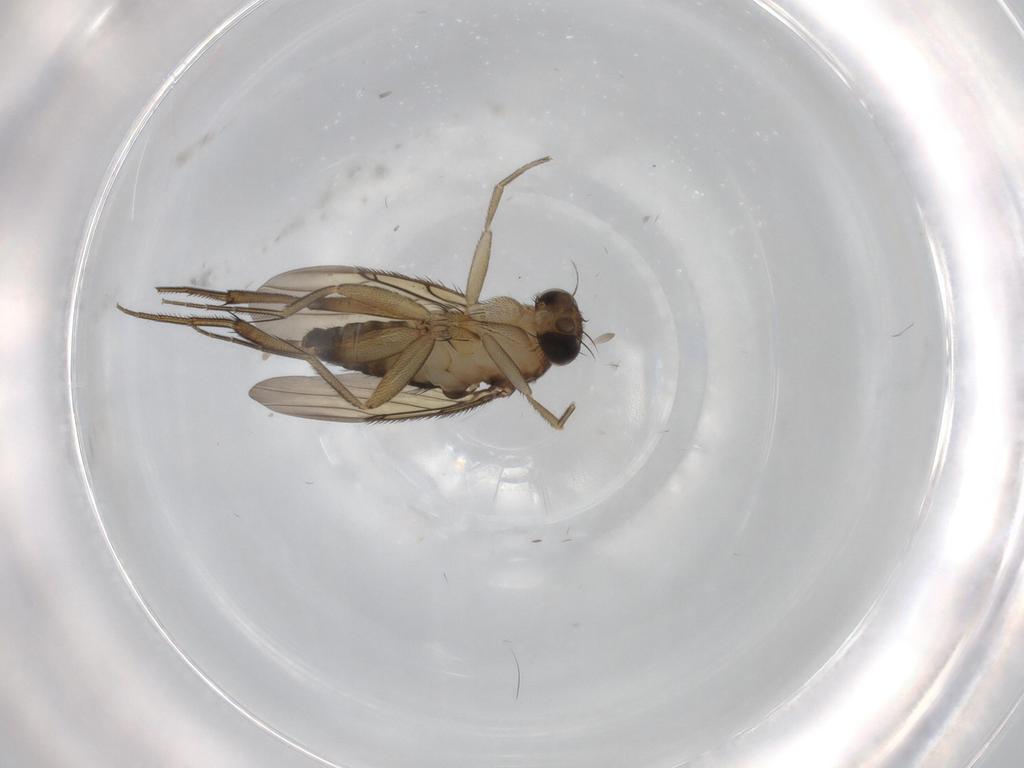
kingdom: Animalia
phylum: Arthropoda
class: Insecta
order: Diptera
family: Phoridae
